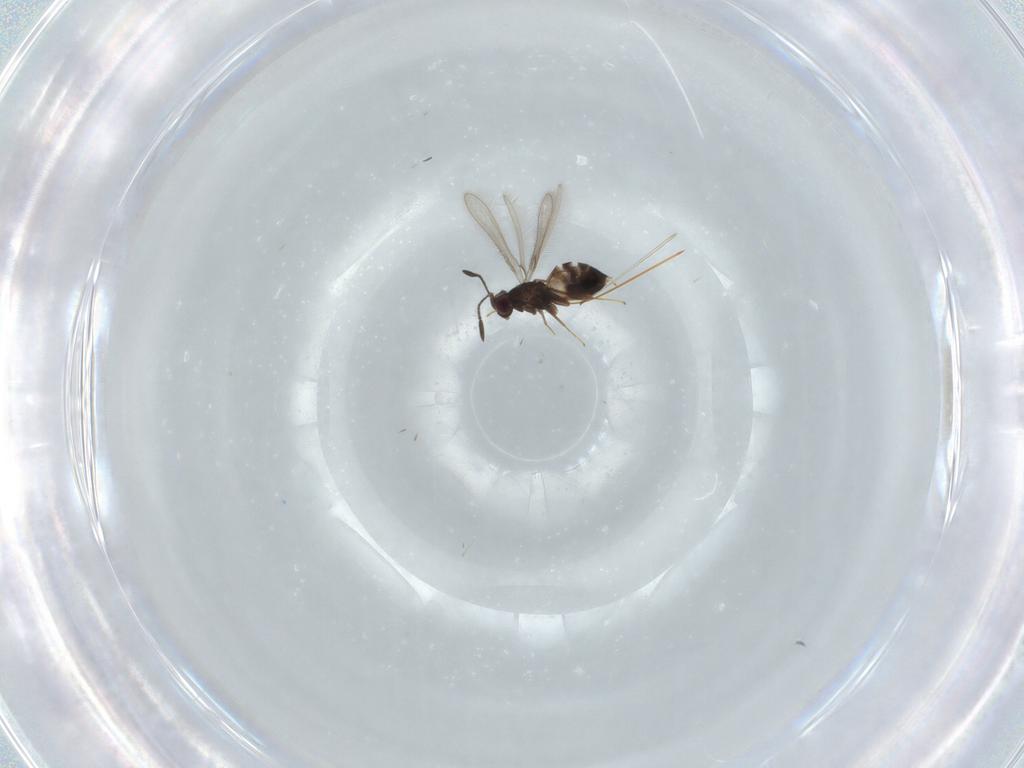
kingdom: Animalia
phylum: Arthropoda
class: Insecta
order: Hymenoptera
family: Mymaridae
